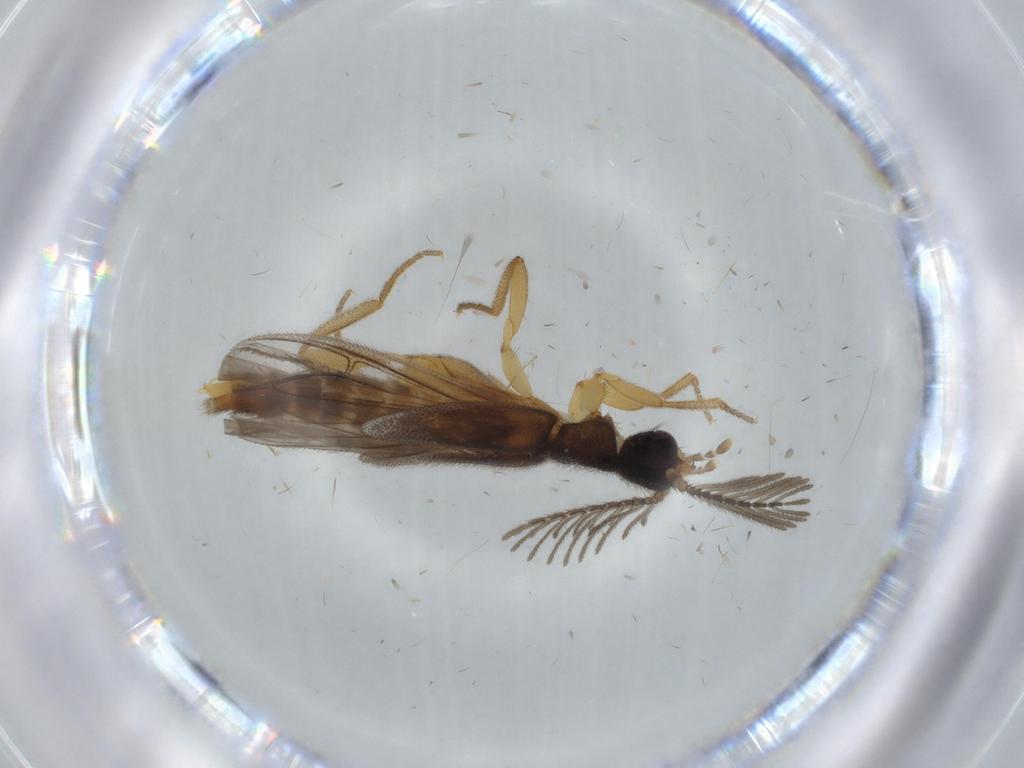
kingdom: Animalia
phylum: Arthropoda
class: Insecta
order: Coleoptera
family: Staphylinidae
